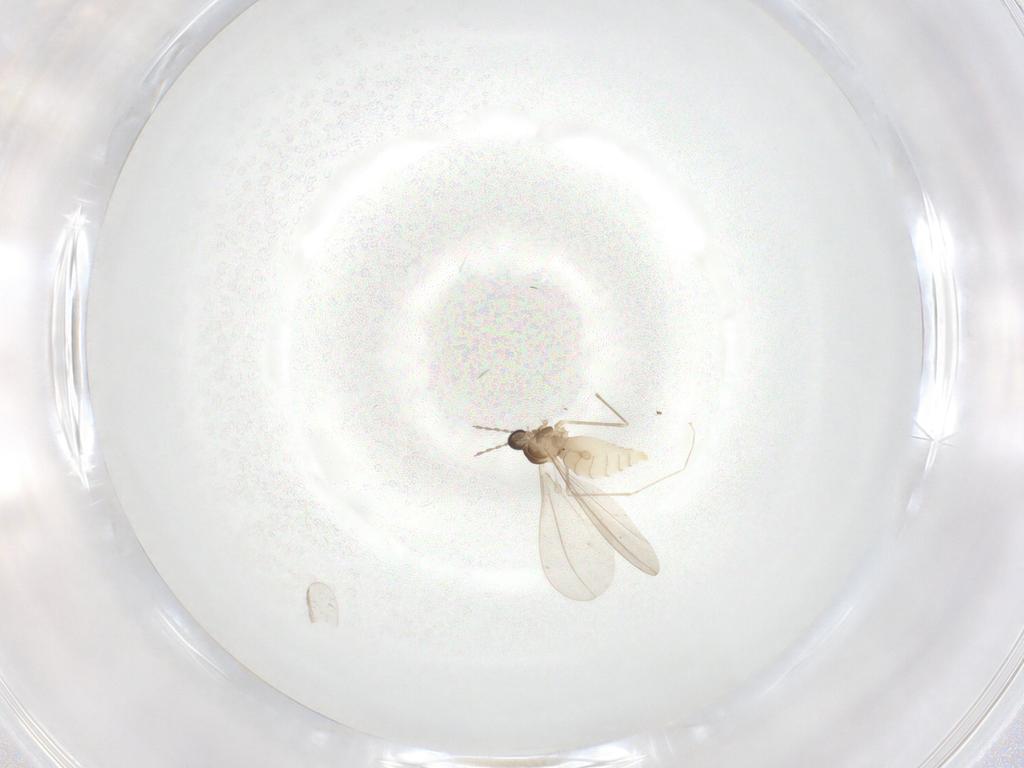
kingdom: Animalia
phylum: Arthropoda
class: Insecta
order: Diptera
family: Cecidomyiidae
